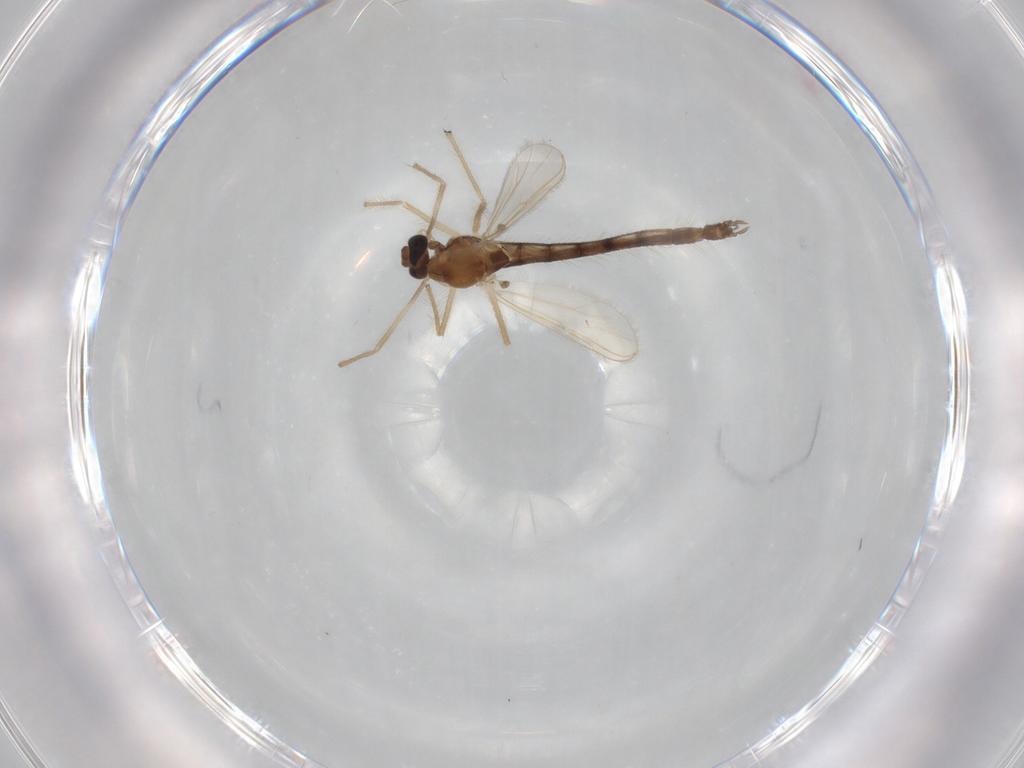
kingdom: Animalia
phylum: Arthropoda
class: Insecta
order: Diptera
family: Chironomidae
